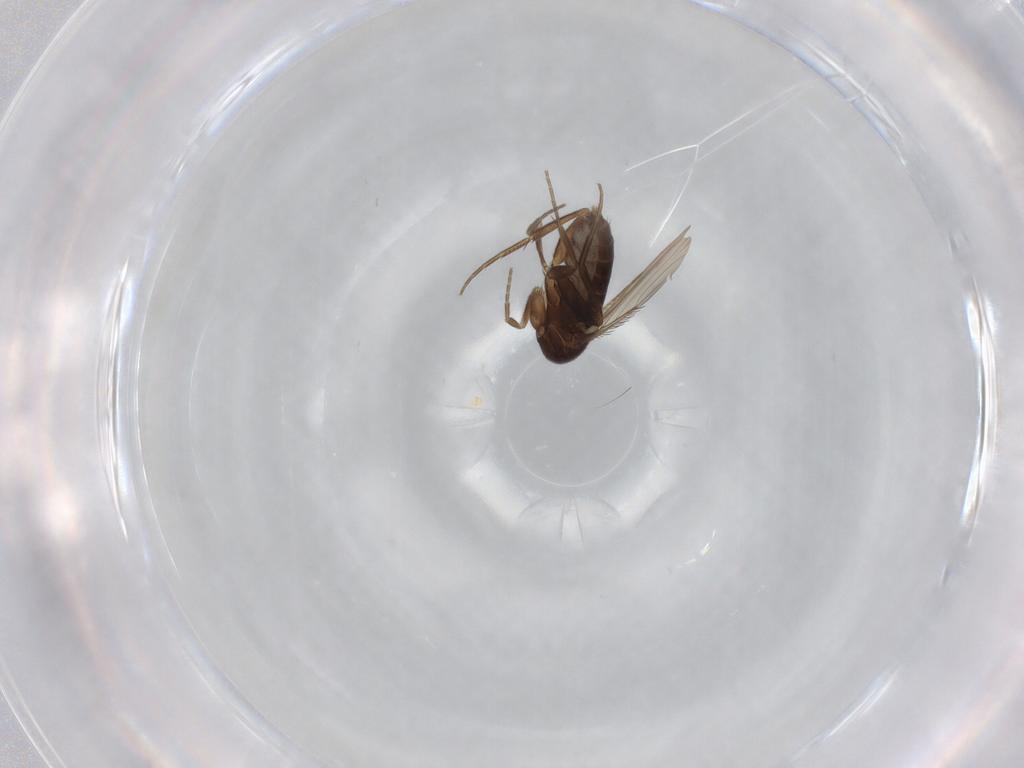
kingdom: Animalia
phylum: Arthropoda
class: Insecta
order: Diptera
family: Phoridae
